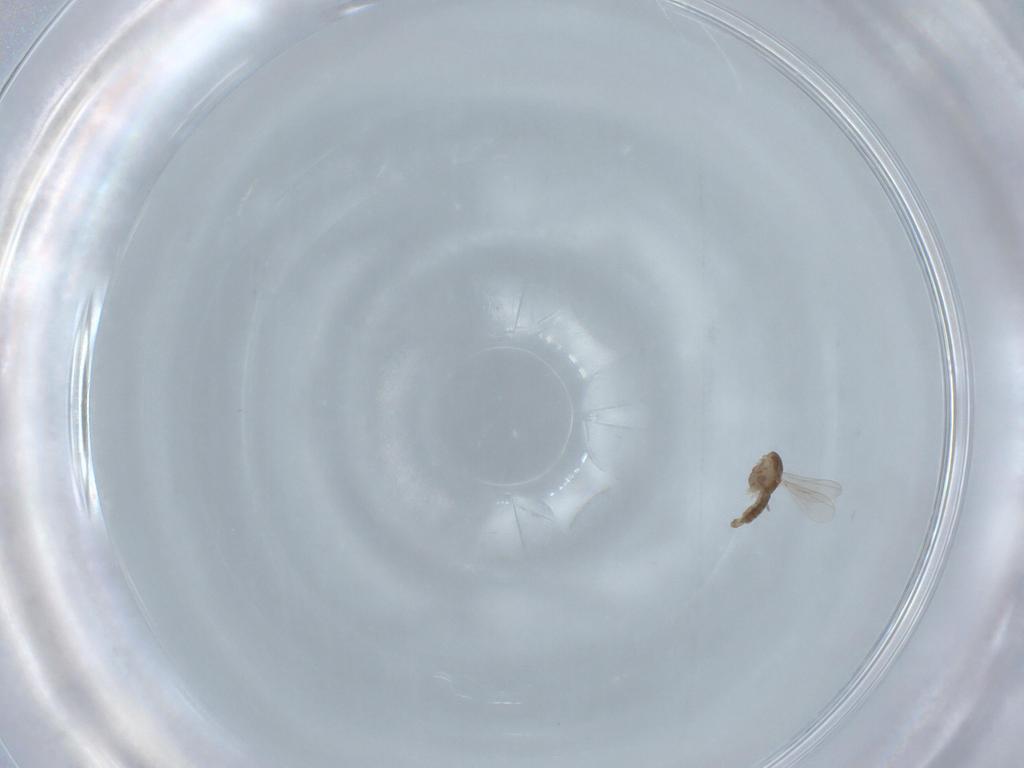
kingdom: Animalia
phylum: Arthropoda
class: Insecta
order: Diptera
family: Chironomidae
